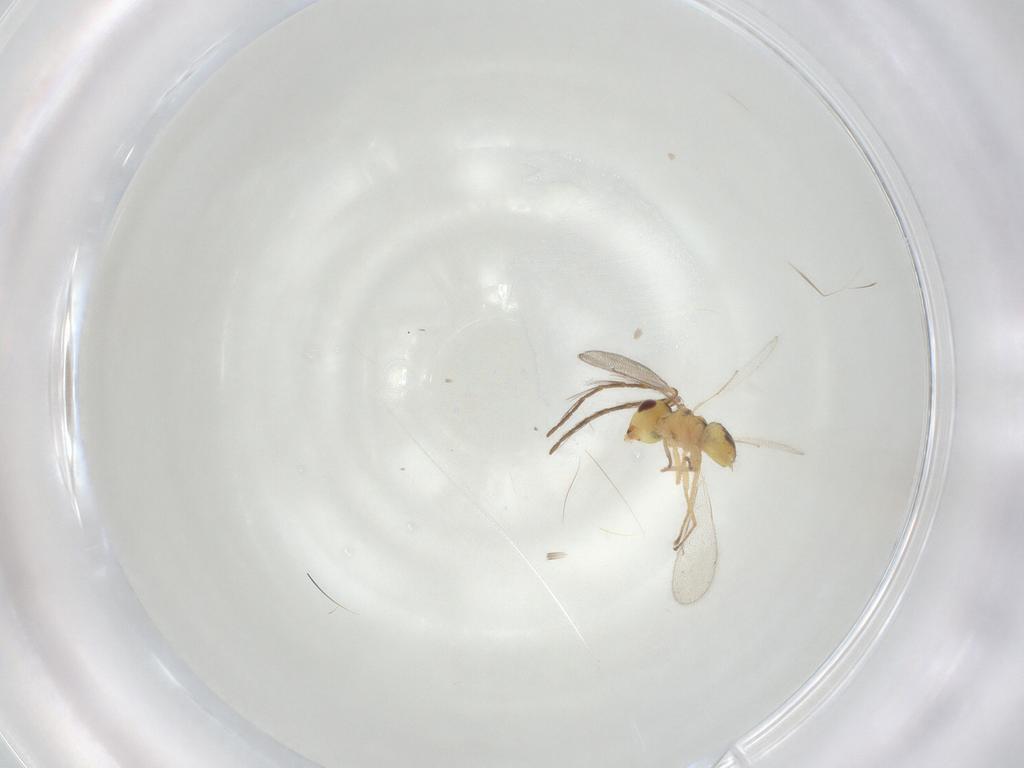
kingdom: Animalia
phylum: Arthropoda
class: Insecta
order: Hymenoptera
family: Eulophidae
